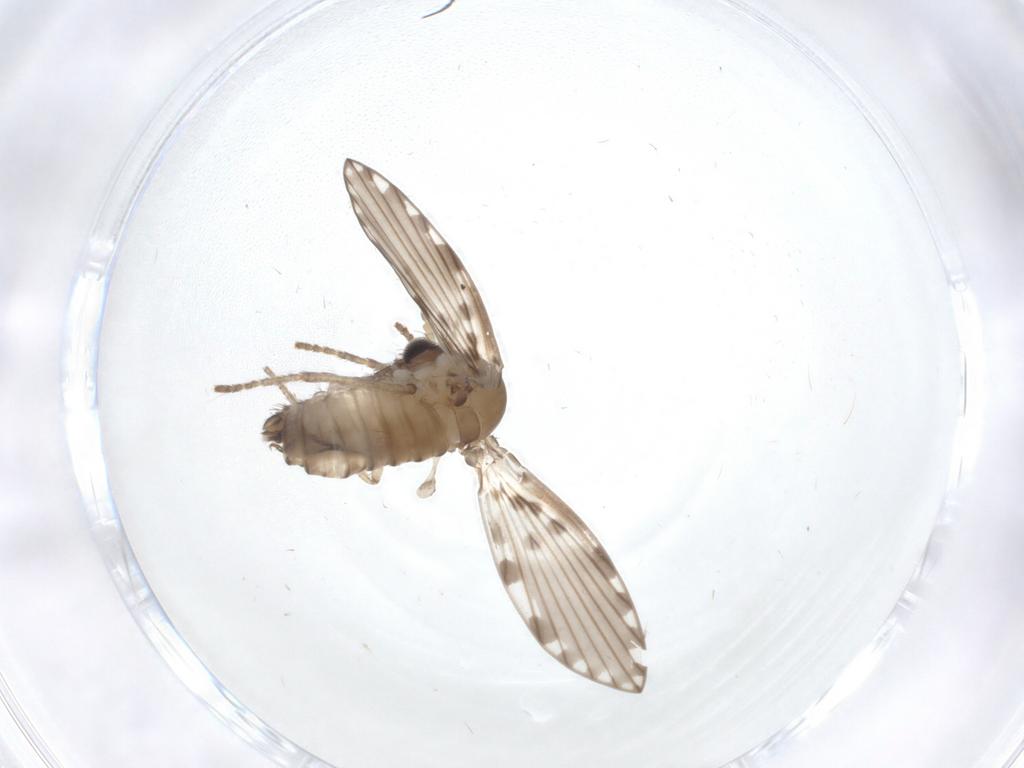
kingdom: Animalia
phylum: Arthropoda
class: Insecta
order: Diptera
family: Psychodidae
